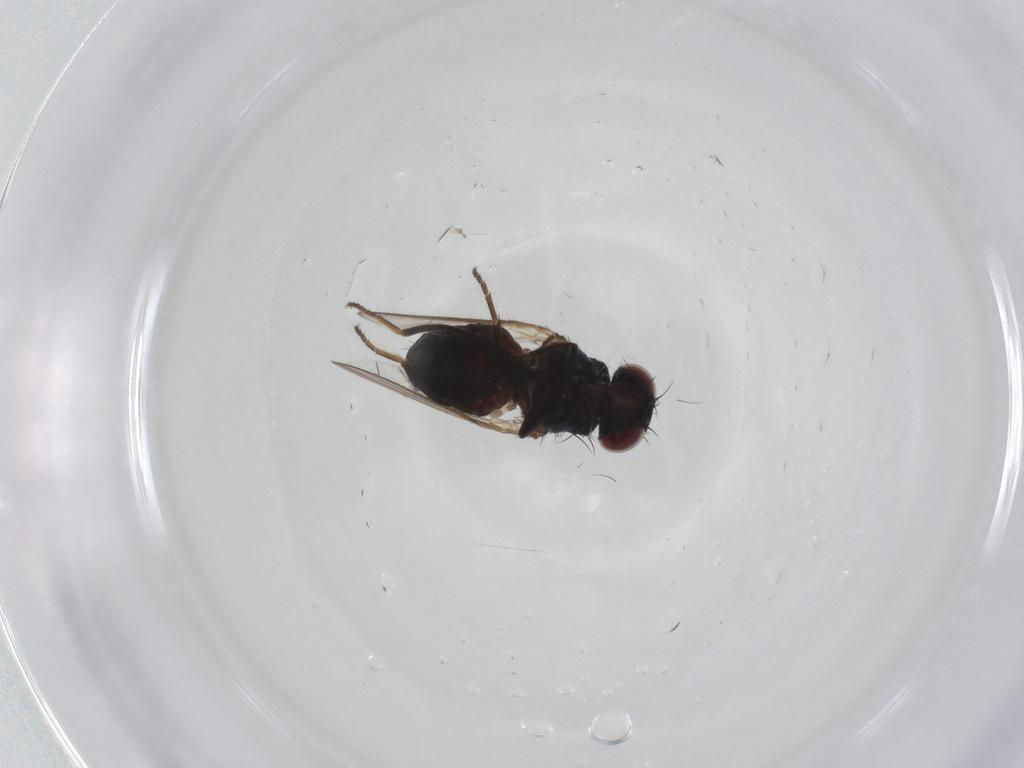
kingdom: Animalia
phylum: Arthropoda
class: Insecta
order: Diptera
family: Carnidae
